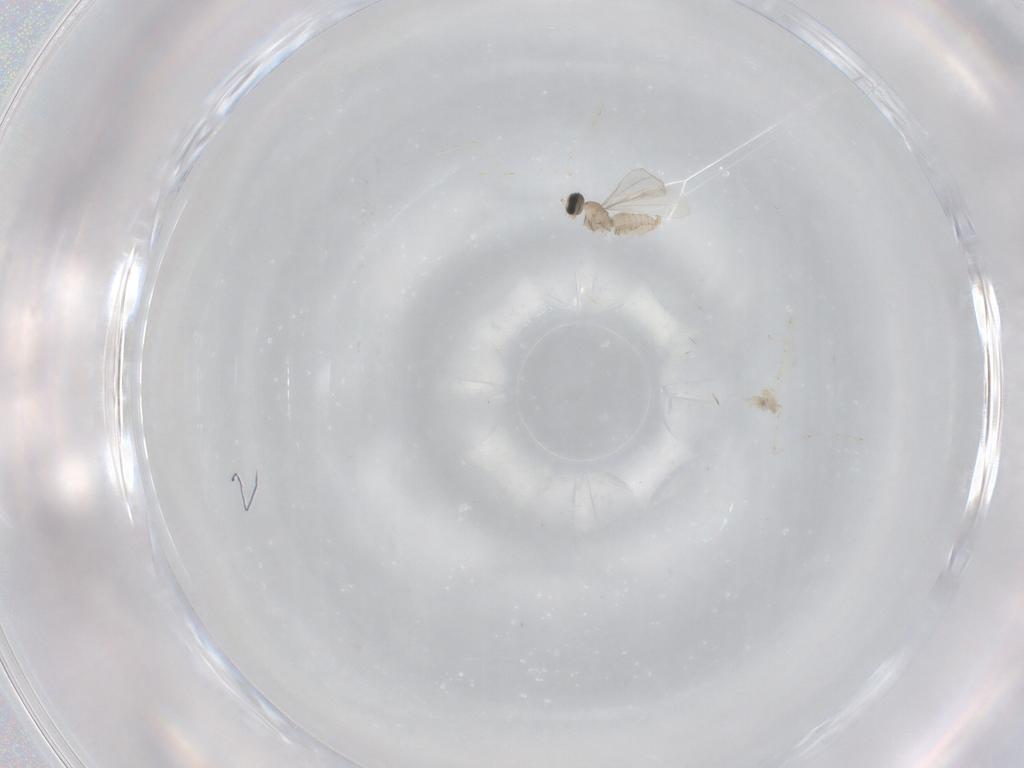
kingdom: Animalia
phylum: Arthropoda
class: Insecta
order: Diptera
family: Cecidomyiidae
